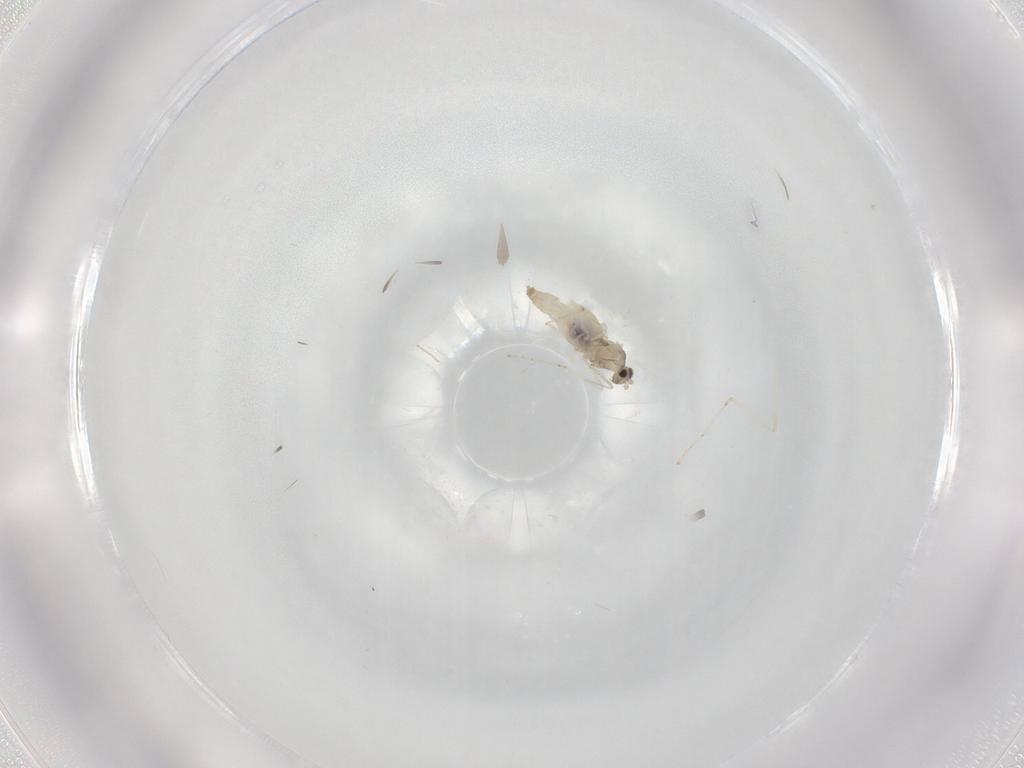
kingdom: Animalia
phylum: Arthropoda
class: Insecta
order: Diptera
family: Cecidomyiidae
